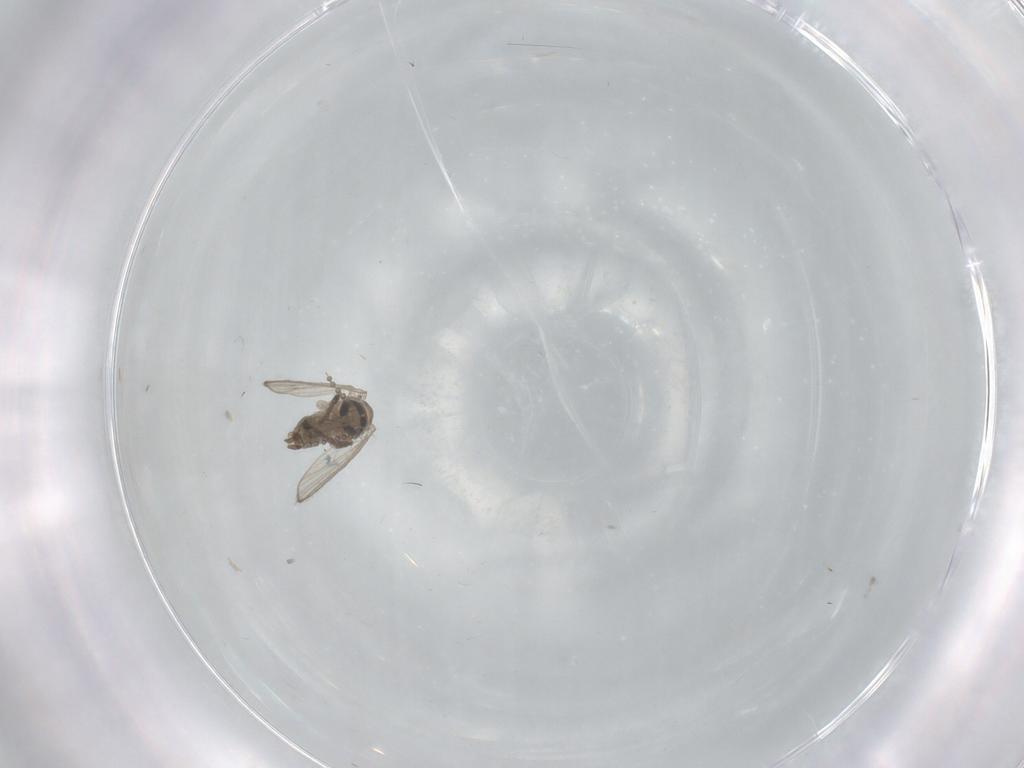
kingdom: Animalia
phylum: Arthropoda
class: Insecta
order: Diptera
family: Psychodidae
